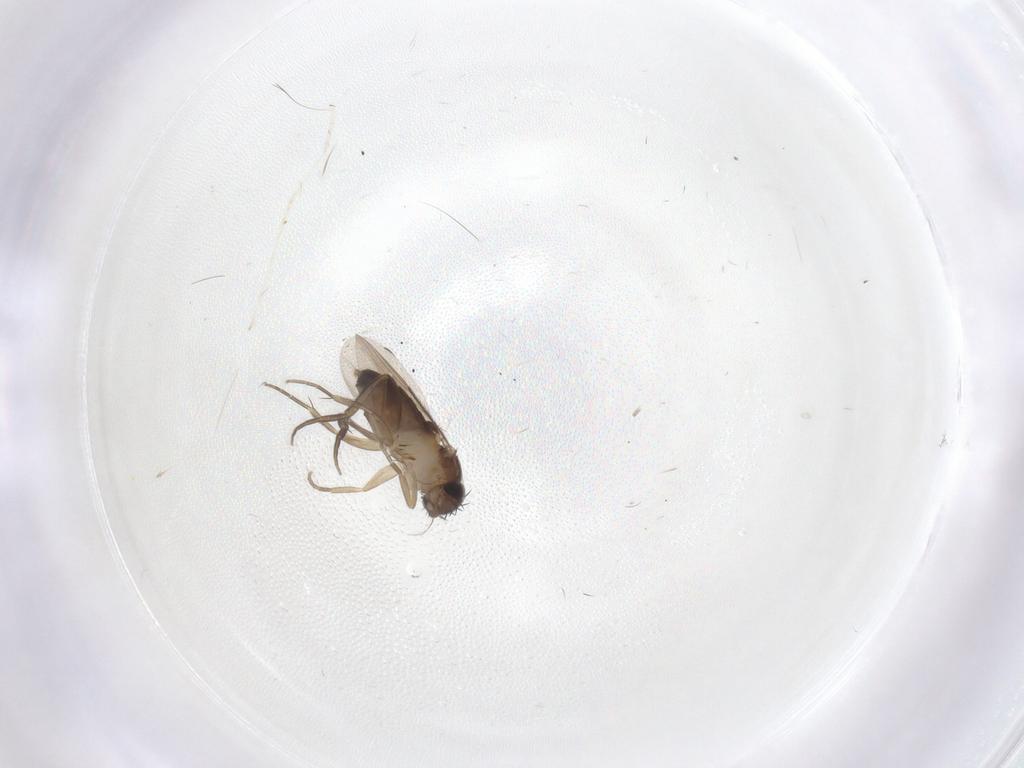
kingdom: Animalia
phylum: Arthropoda
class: Insecta
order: Diptera
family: Phoridae
